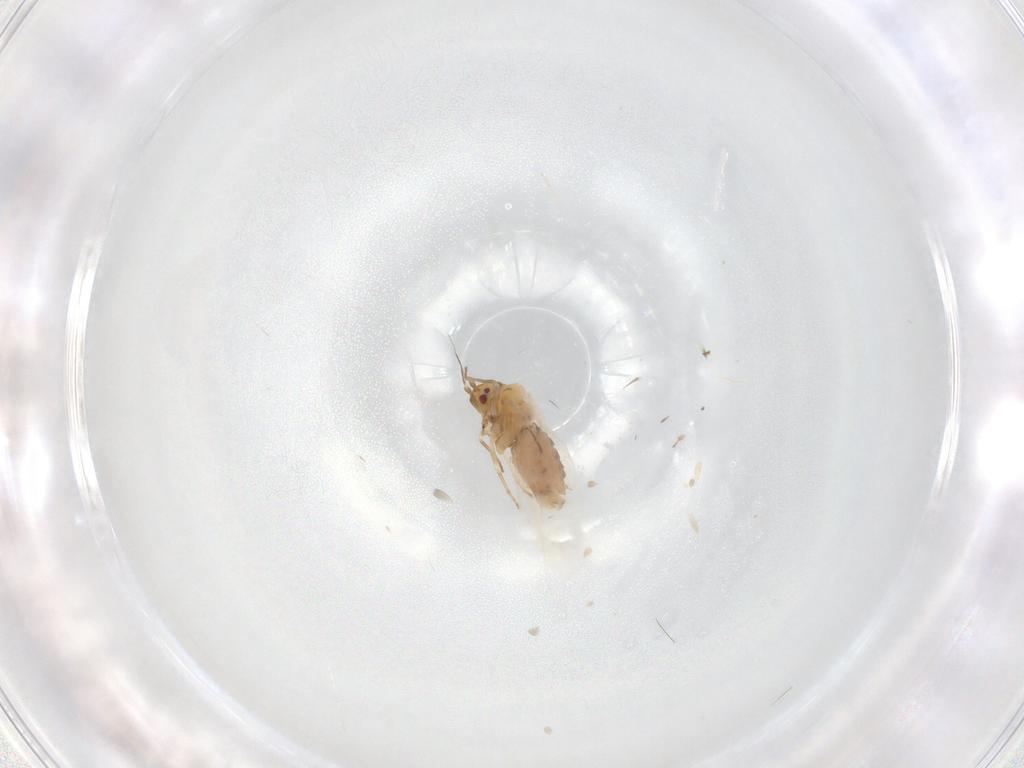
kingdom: Animalia
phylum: Arthropoda
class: Insecta
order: Hemiptera
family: Aleyrodidae
